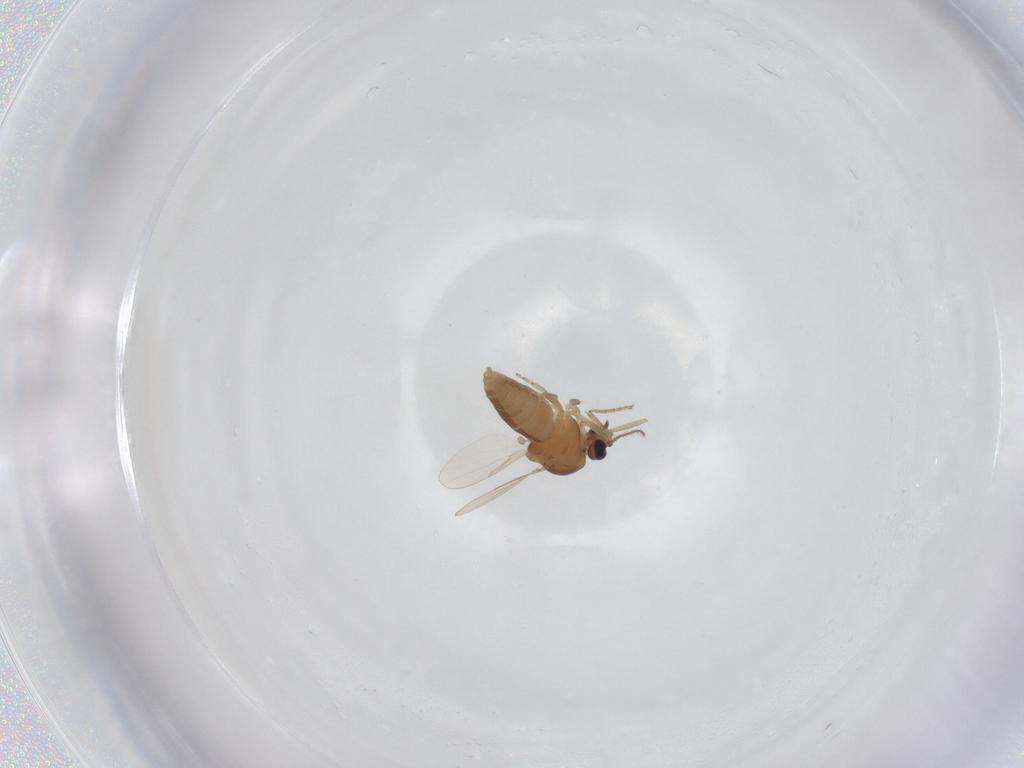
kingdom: Animalia
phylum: Arthropoda
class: Insecta
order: Diptera
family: Ceratopogonidae
